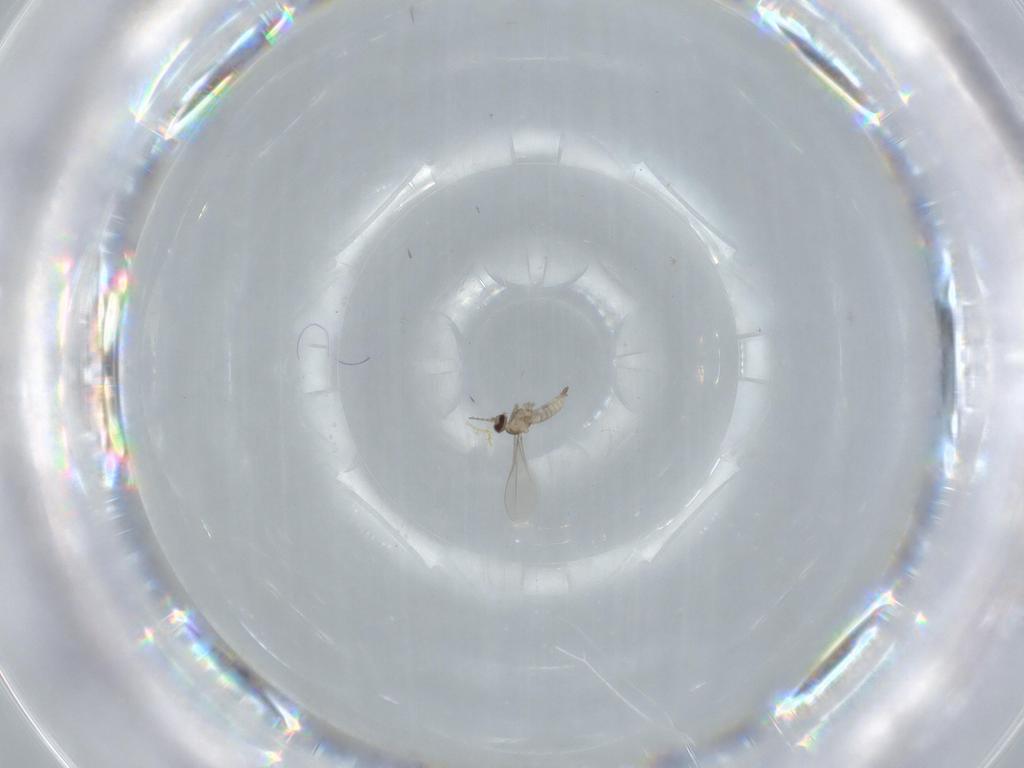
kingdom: Animalia
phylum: Arthropoda
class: Insecta
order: Diptera
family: Cecidomyiidae
